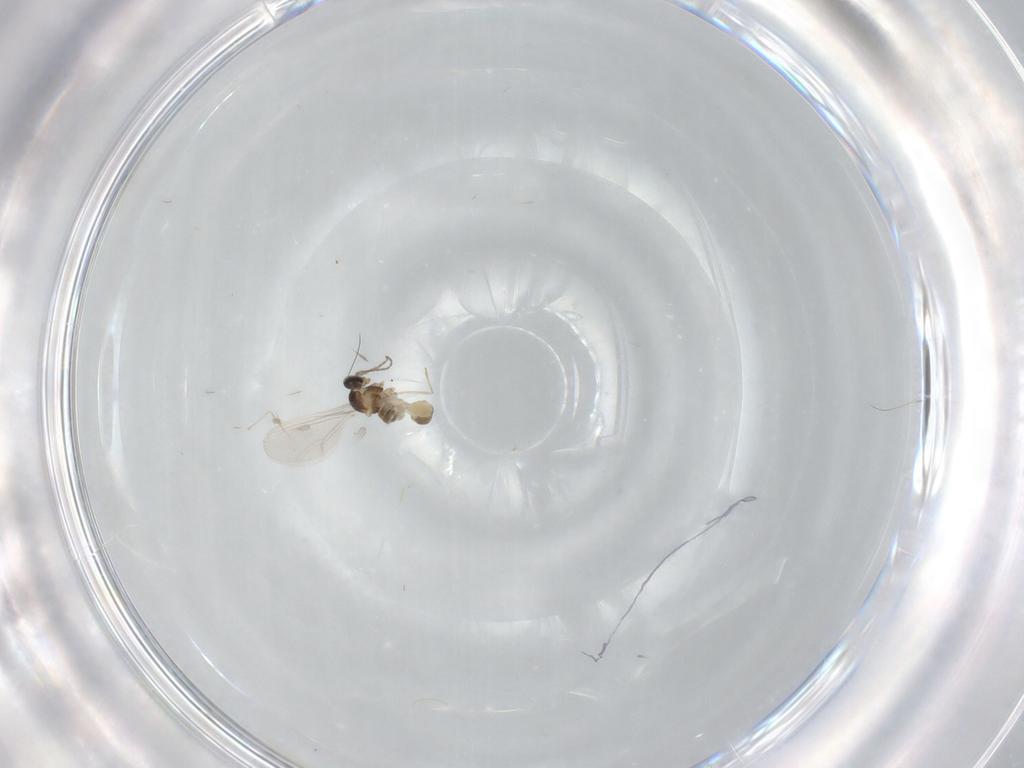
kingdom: Animalia
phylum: Arthropoda
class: Insecta
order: Diptera
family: Cecidomyiidae
